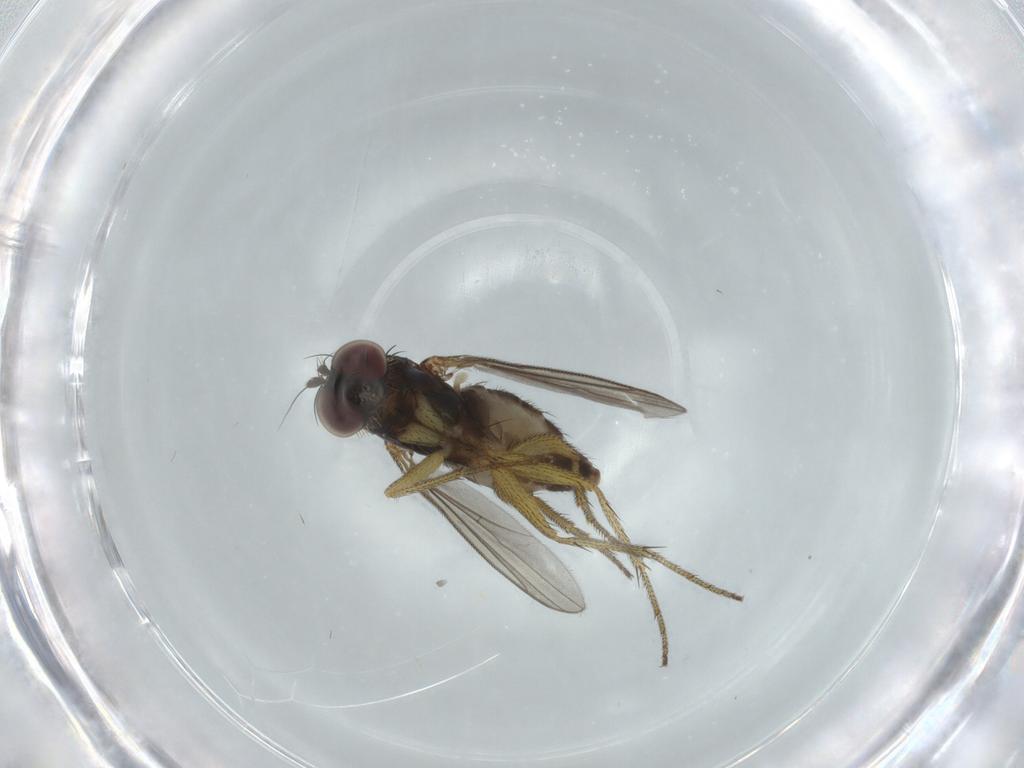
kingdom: Animalia
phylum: Arthropoda
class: Insecta
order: Diptera
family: Dolichopodidae
